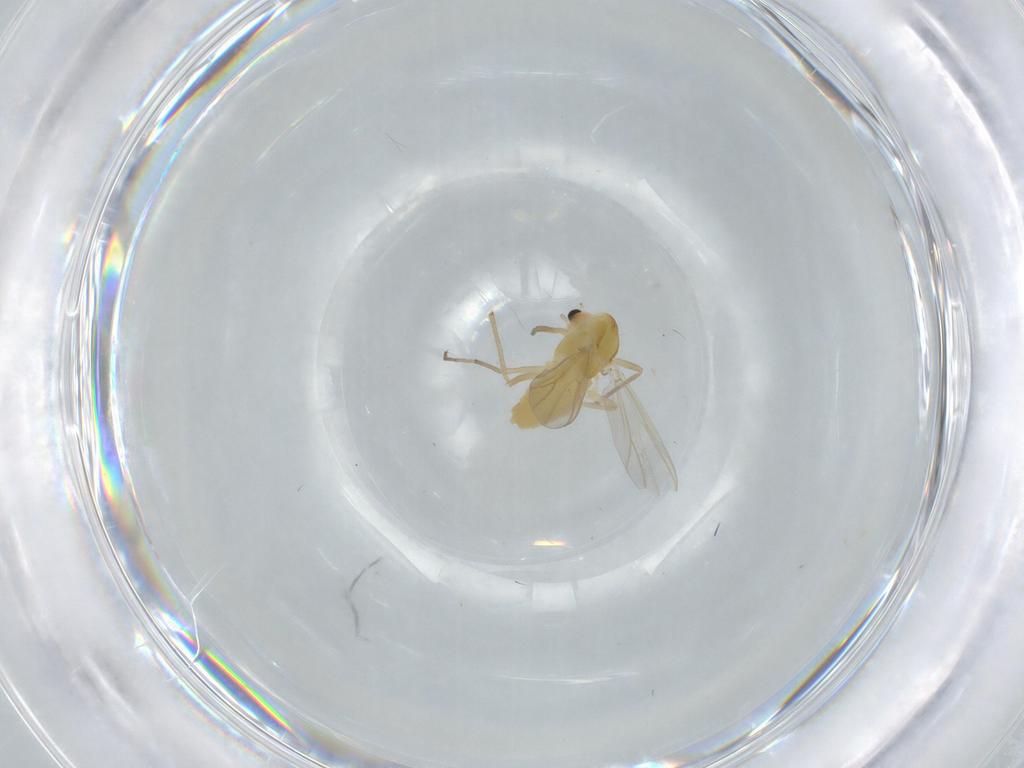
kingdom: Animalia
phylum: Arthropoda
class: Insecta
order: Diptera
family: Chironomidae
